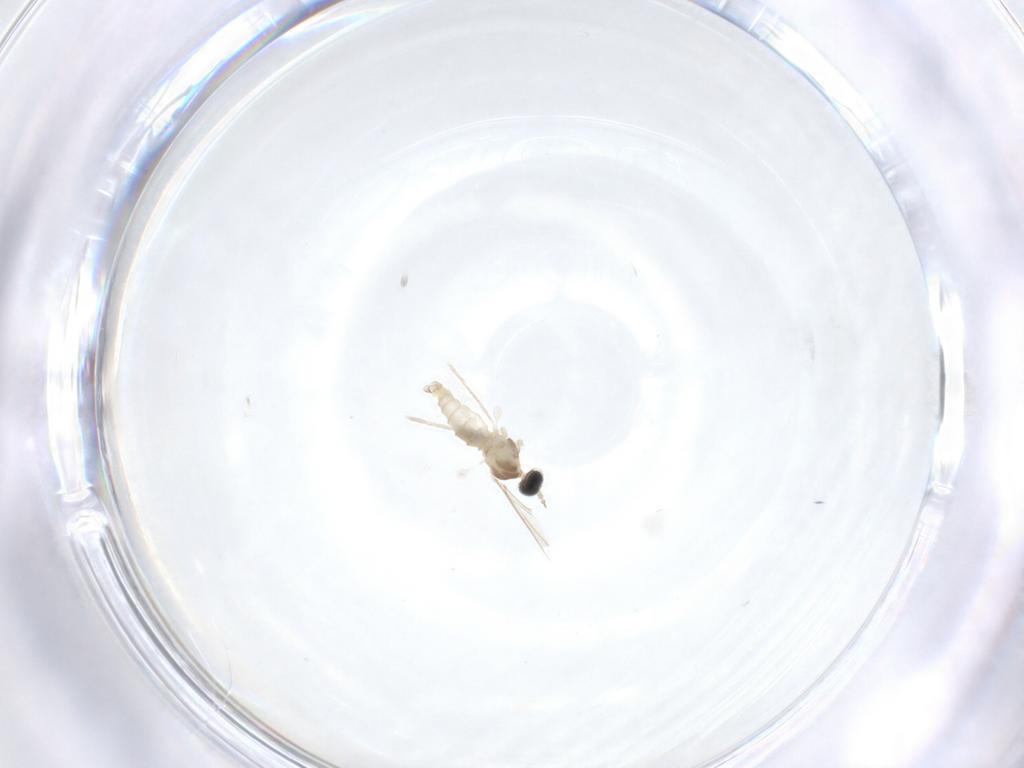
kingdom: Animalia
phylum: Arthropoda
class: Insecta
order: Diptera
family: Cecidomyiidae
